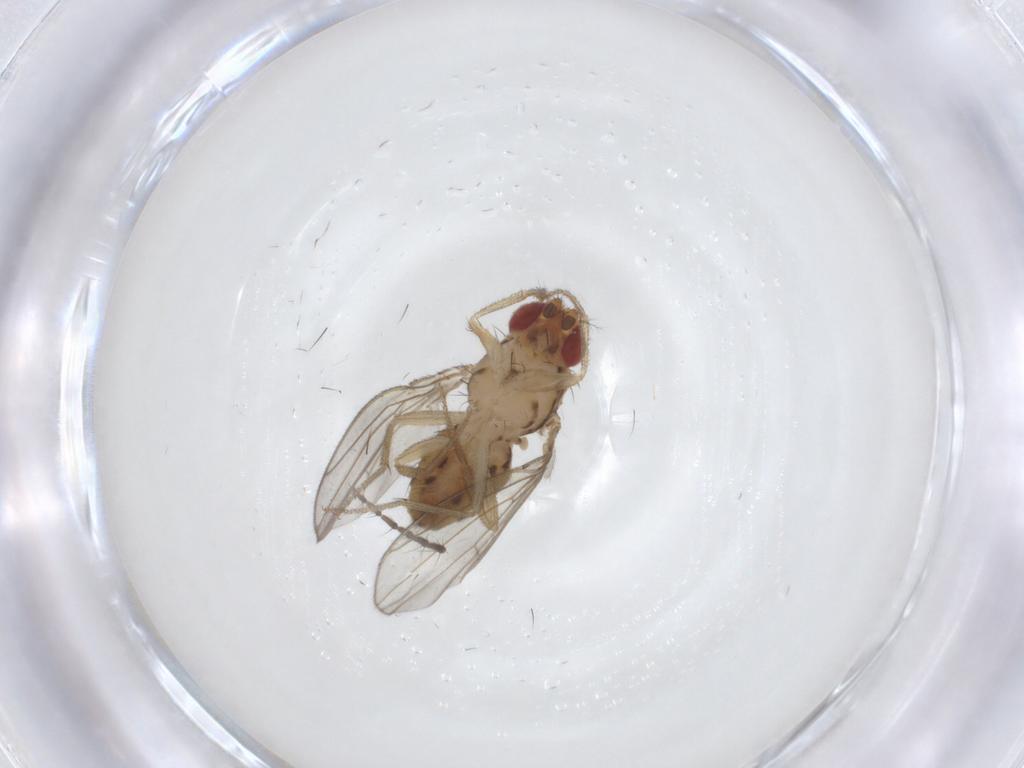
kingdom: Animalia
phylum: Arthropoda
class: Insecta
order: Diptera
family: Drosophilidae
